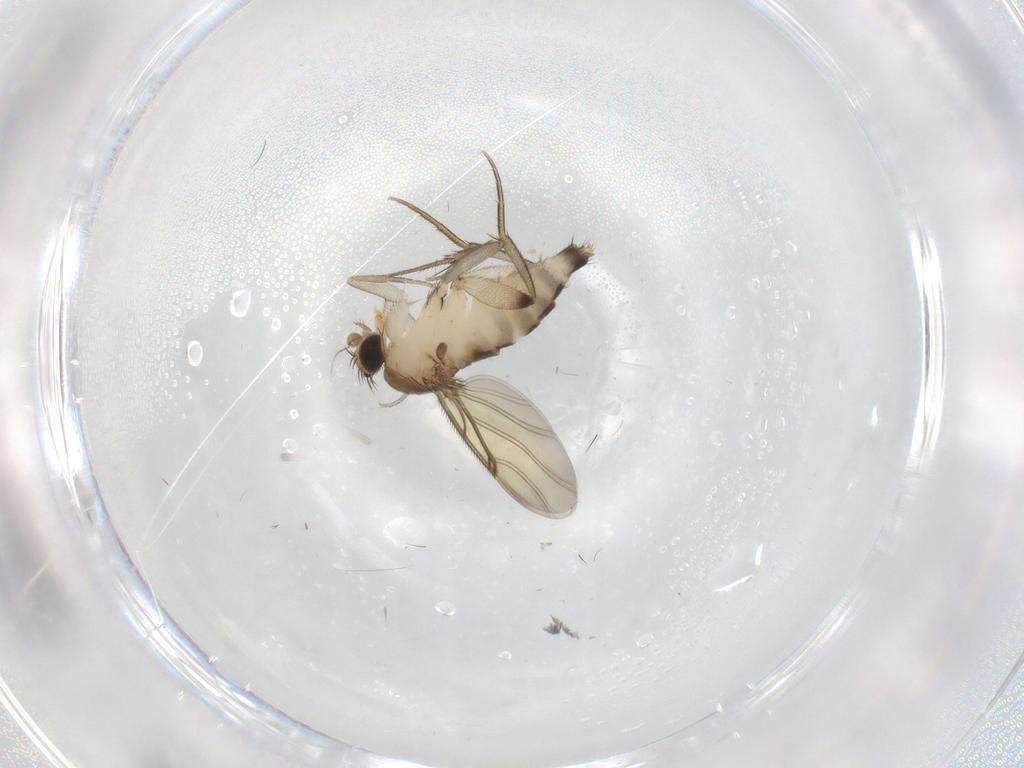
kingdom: Animalia
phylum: Arthropoda
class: Insecta
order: Diptera
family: Phoridae
